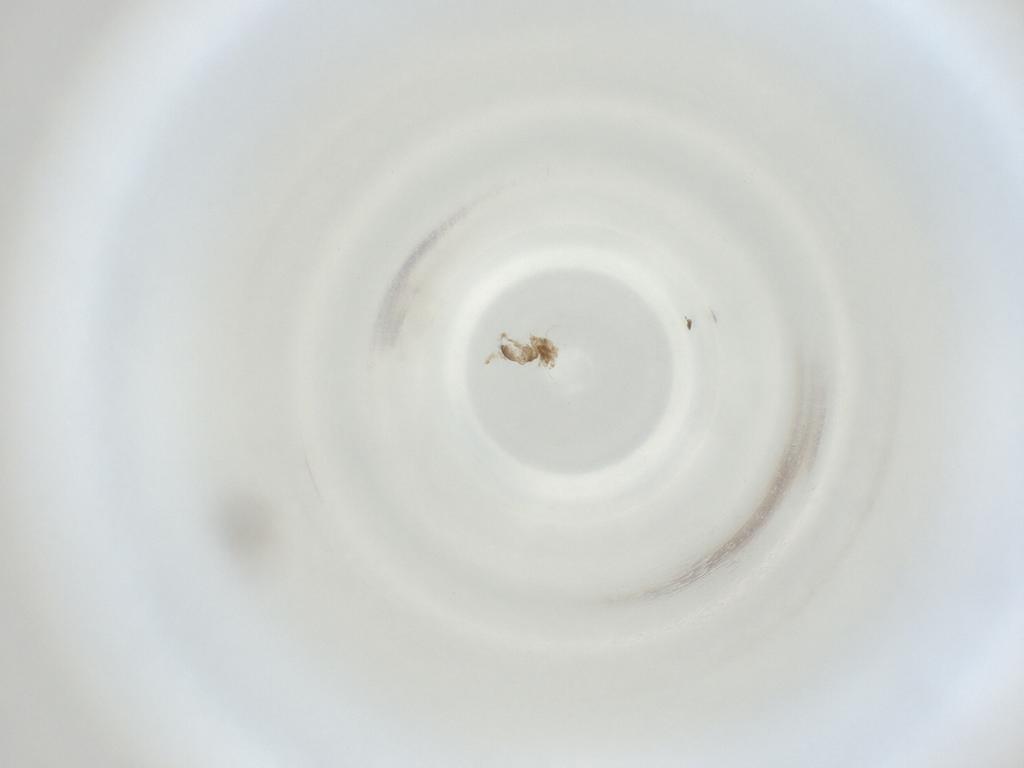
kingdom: Animalia
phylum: Arthropoda
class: Insecta
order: Diptera
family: Cecidomyiidae
